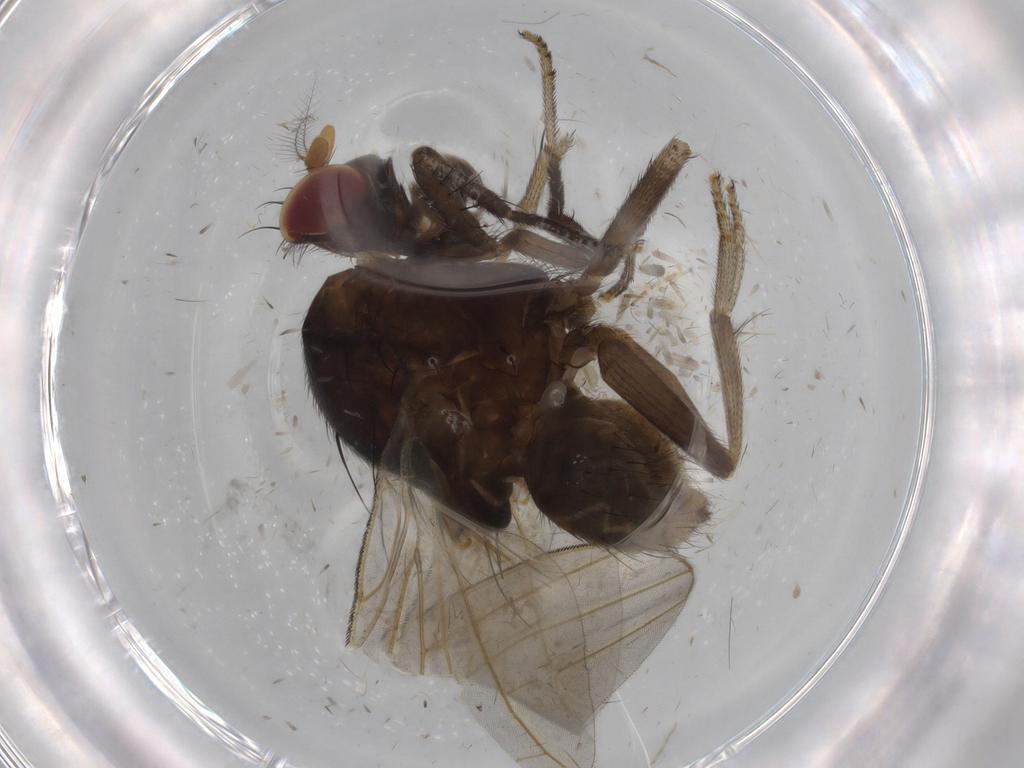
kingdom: Animalia
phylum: Arthropoda
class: Insecta
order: Diptera
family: Cecidomyiidae
